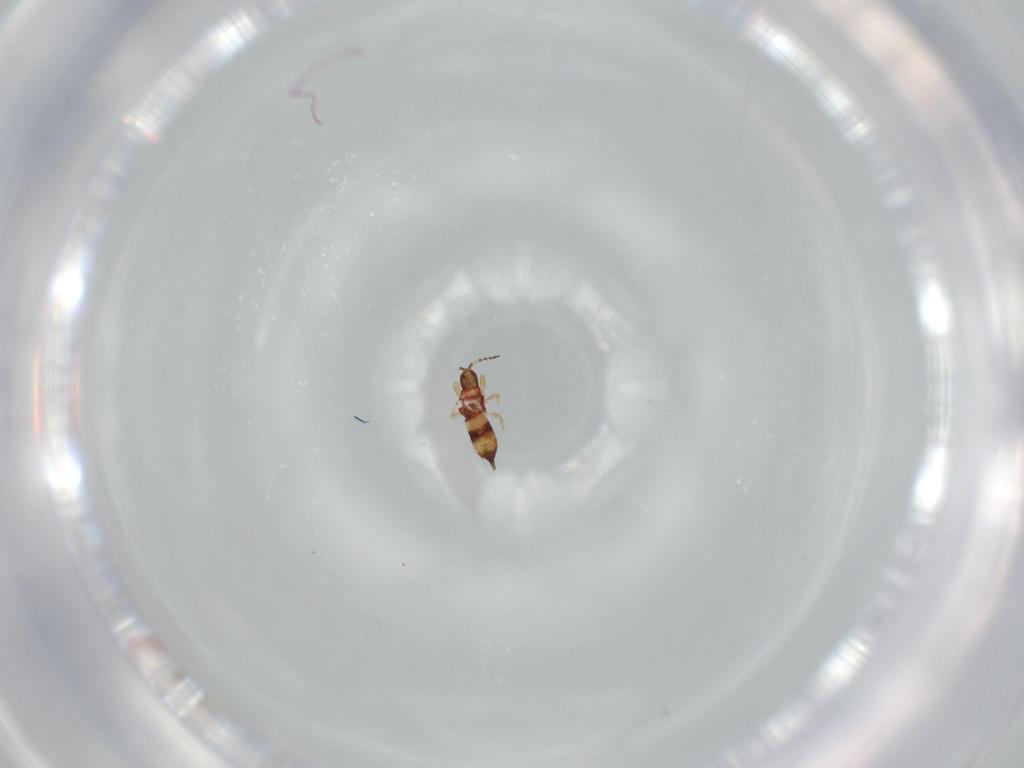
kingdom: Animalia
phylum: Arthropoda
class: Insecta
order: Thysanoptera
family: Phlaeothripidae
